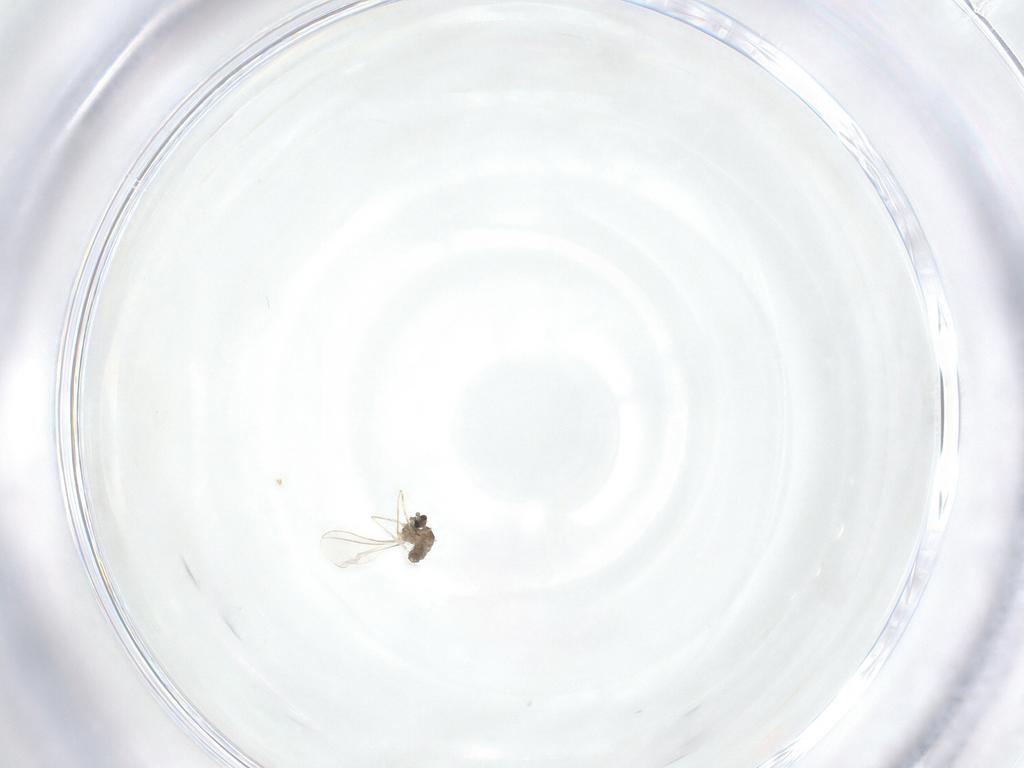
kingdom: Animalia
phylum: Arthropoda
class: Insecta
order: Diptera
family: Cecidomyiidae
